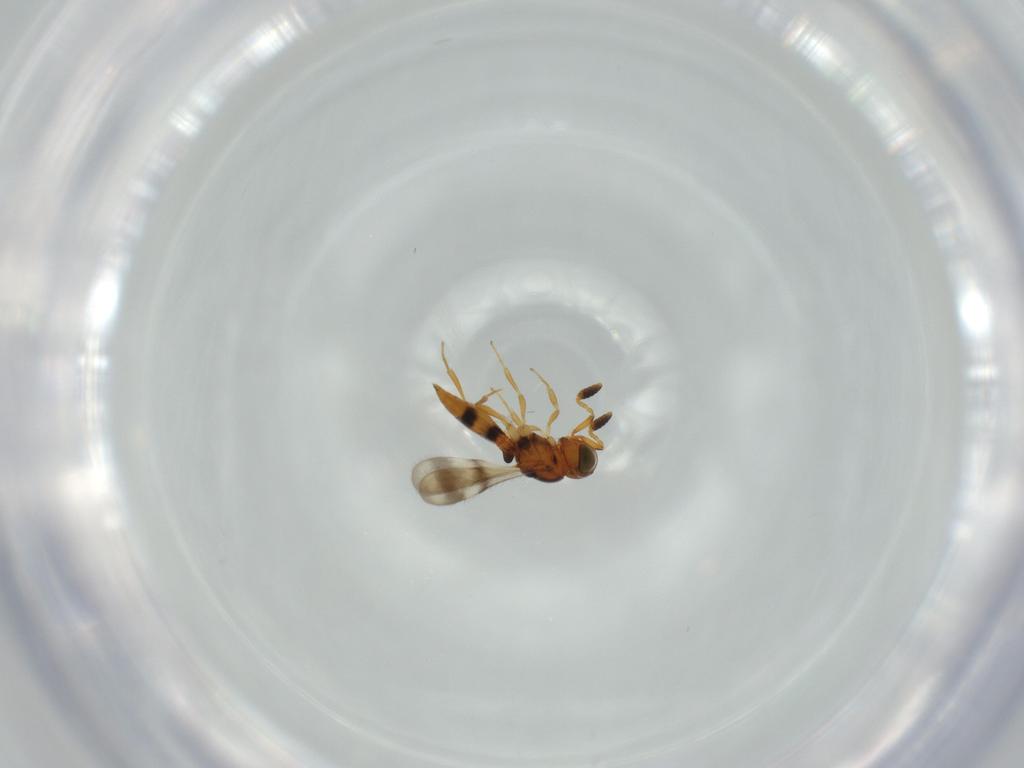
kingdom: Animalia
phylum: Arthropoda
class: Insecta
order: Hymenoptera
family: Scelionidae
